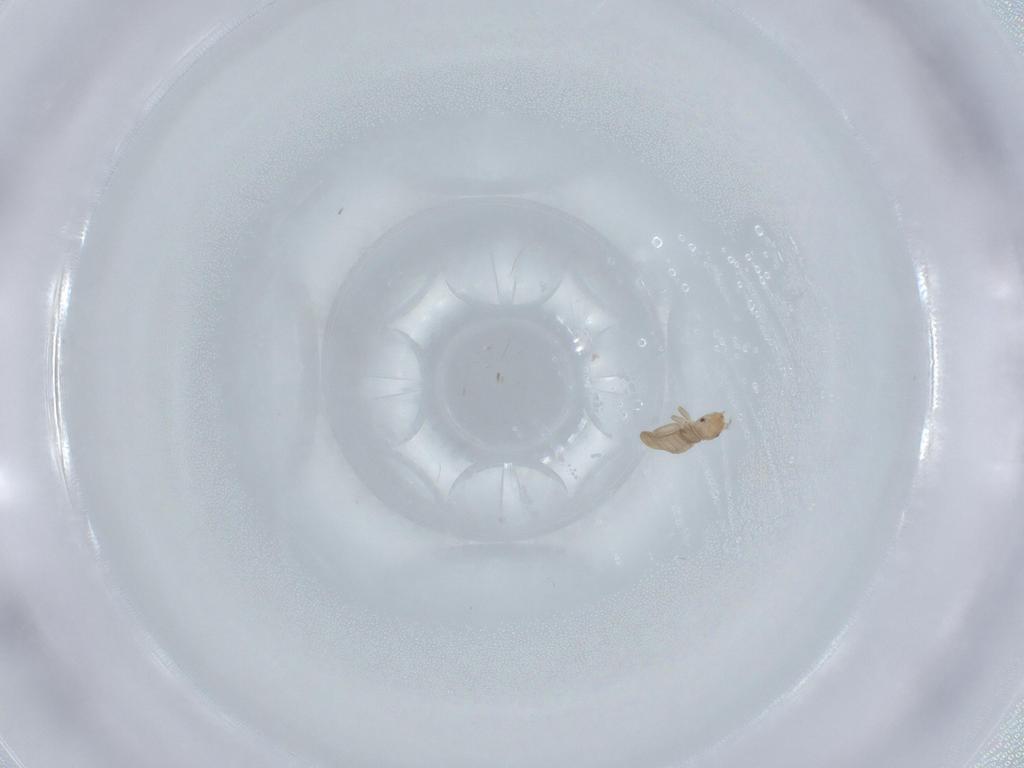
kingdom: Animalia
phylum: Arthropoda
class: Insecta
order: Psocodea
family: Liposcelididae
